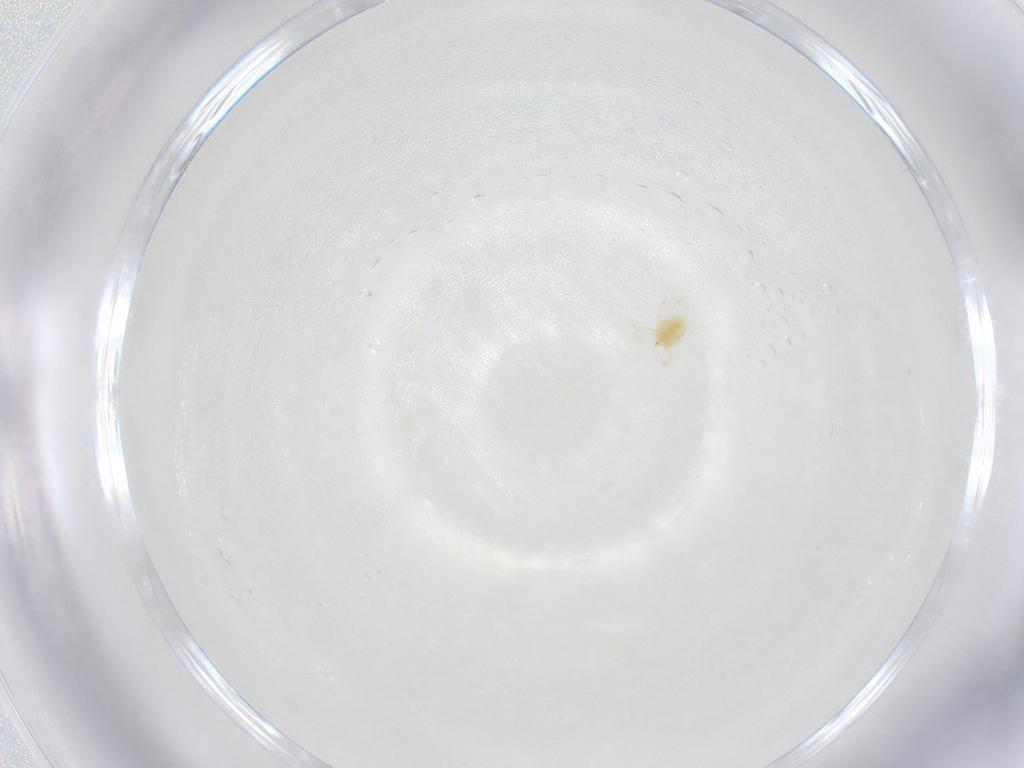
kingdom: Animalia
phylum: Arthropoda
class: Arachnida
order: Trombidiformes
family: Tetranychidae
